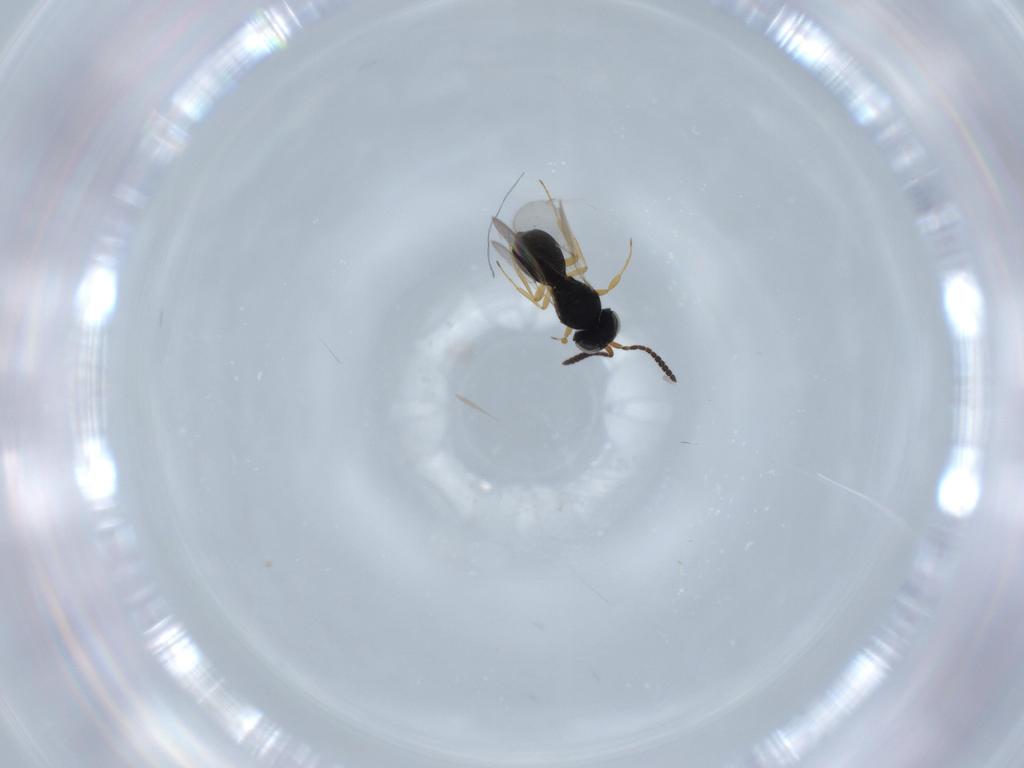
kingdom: Animalia
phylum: Arthropoda
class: Insecta
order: Hymenoptera
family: Scelionidae
